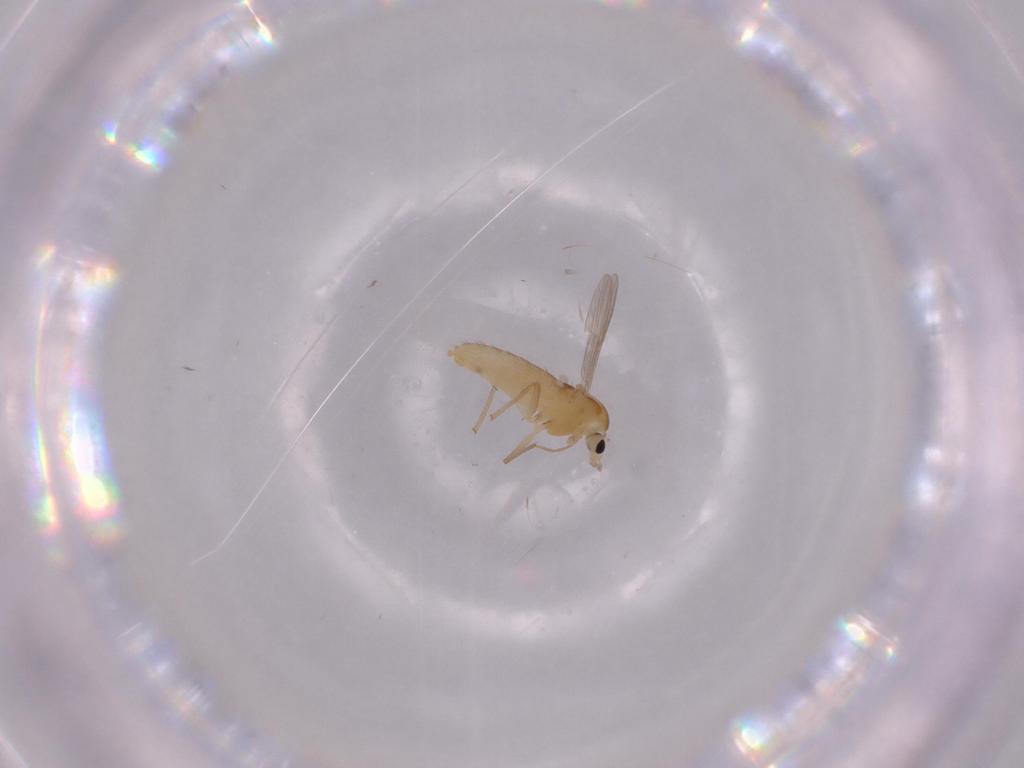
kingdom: Animalia
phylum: Arthropoda
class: Insecta
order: Diptera
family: Chironomidae
